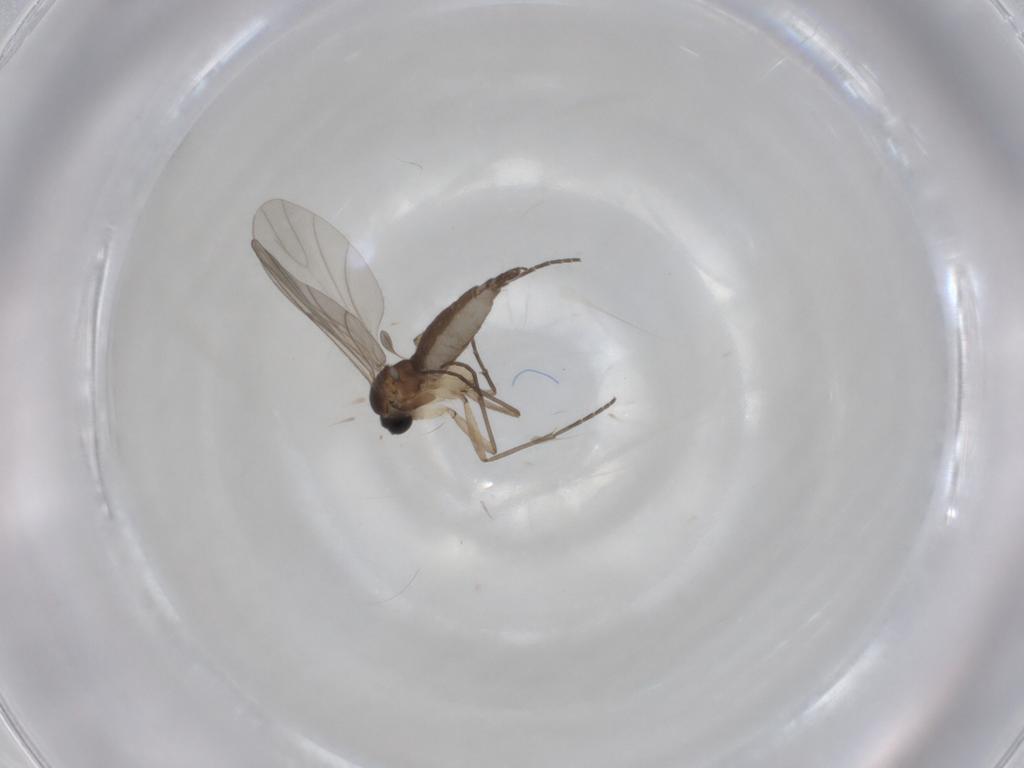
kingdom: Animalia
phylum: Arthropoda
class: Insecta
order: Diptera
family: Sciaridae
